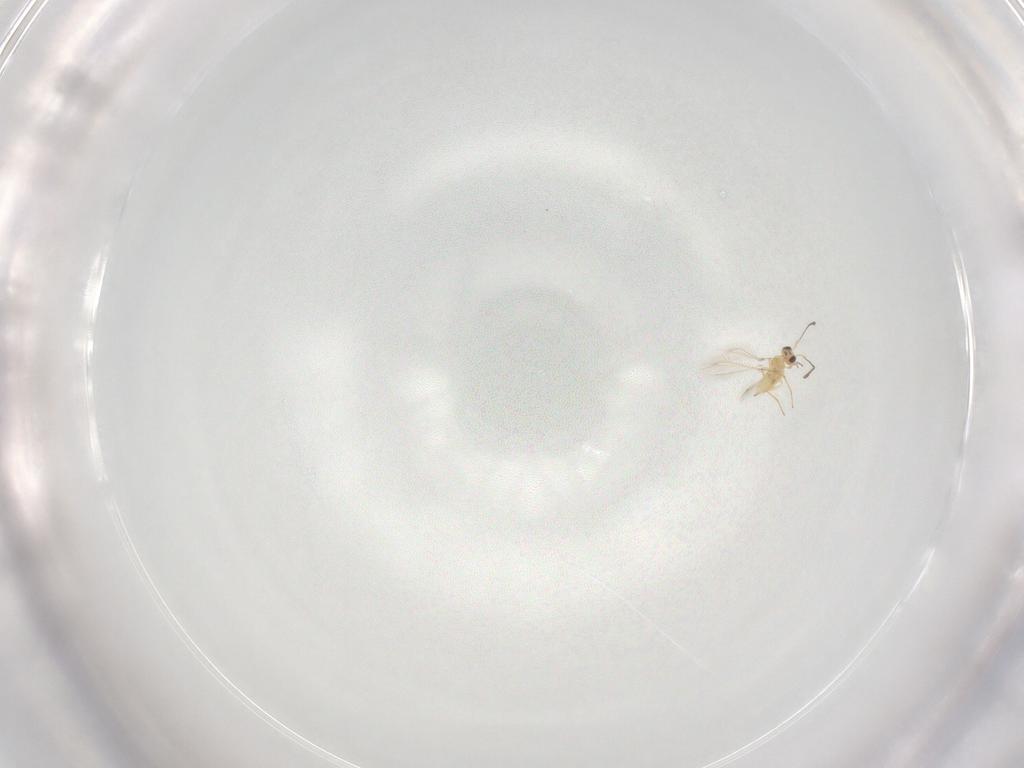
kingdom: Animalia
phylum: Arthropoda
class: Insecta
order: Hymenoptera
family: Mymaridae
